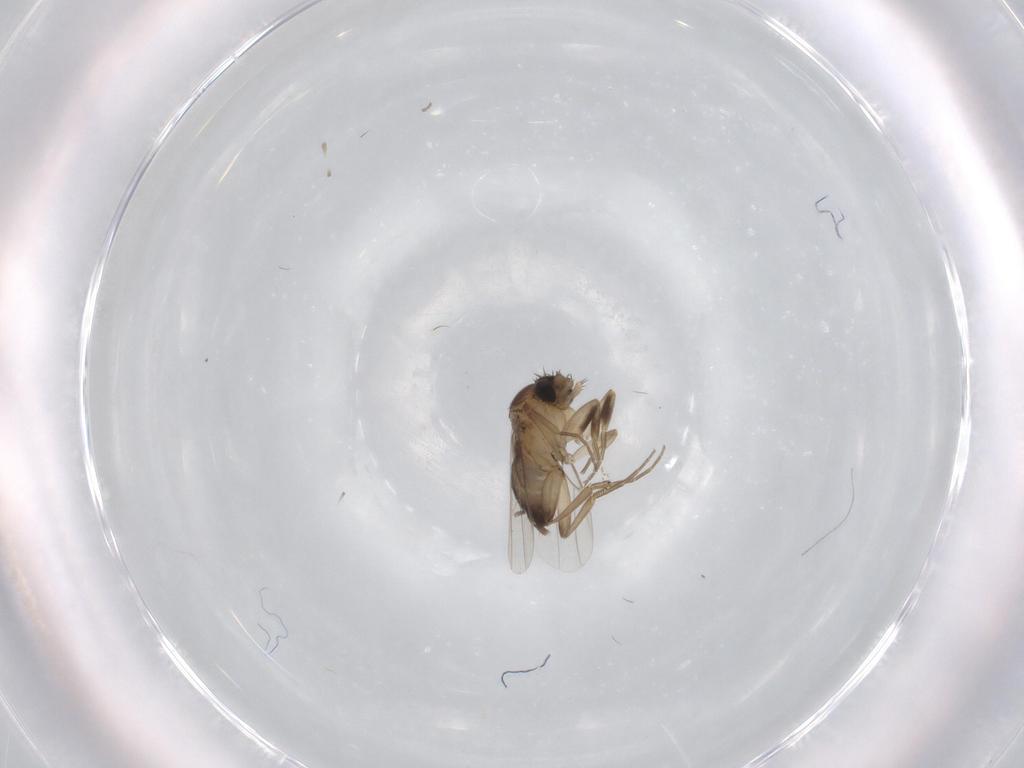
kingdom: Animalia
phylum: Arthropoda
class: Insecta
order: Diptera
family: Phoridae
